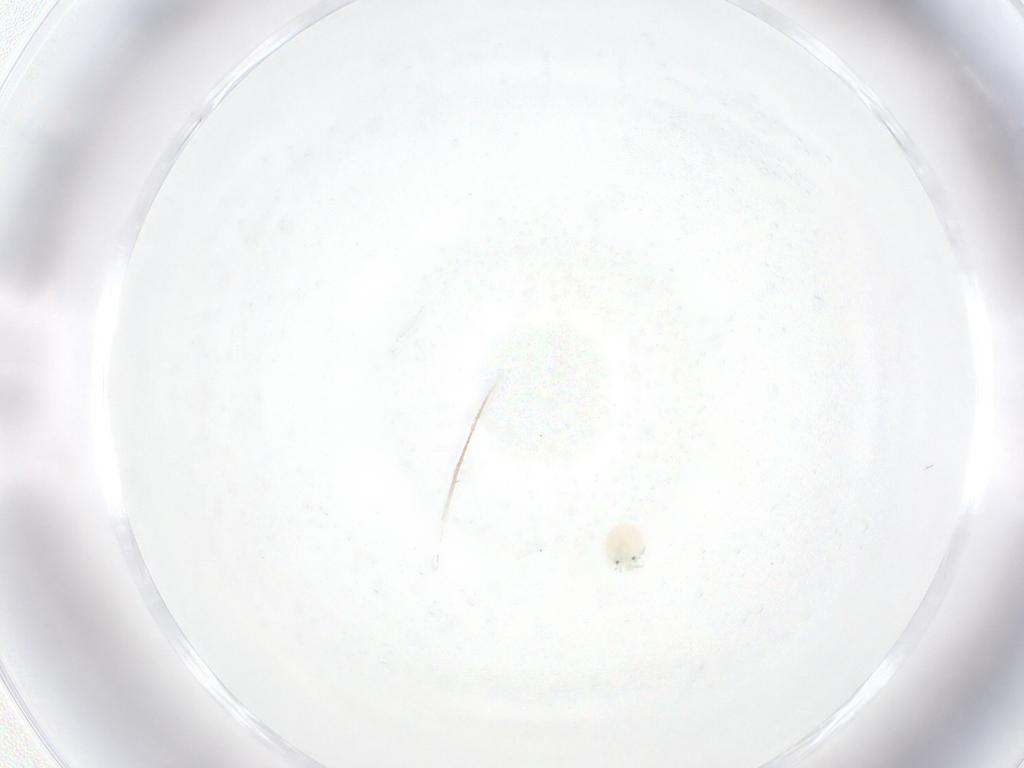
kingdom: Animalia
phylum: Arthropoda
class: Arachnida
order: Trombidiformes
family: Arrenuridae
